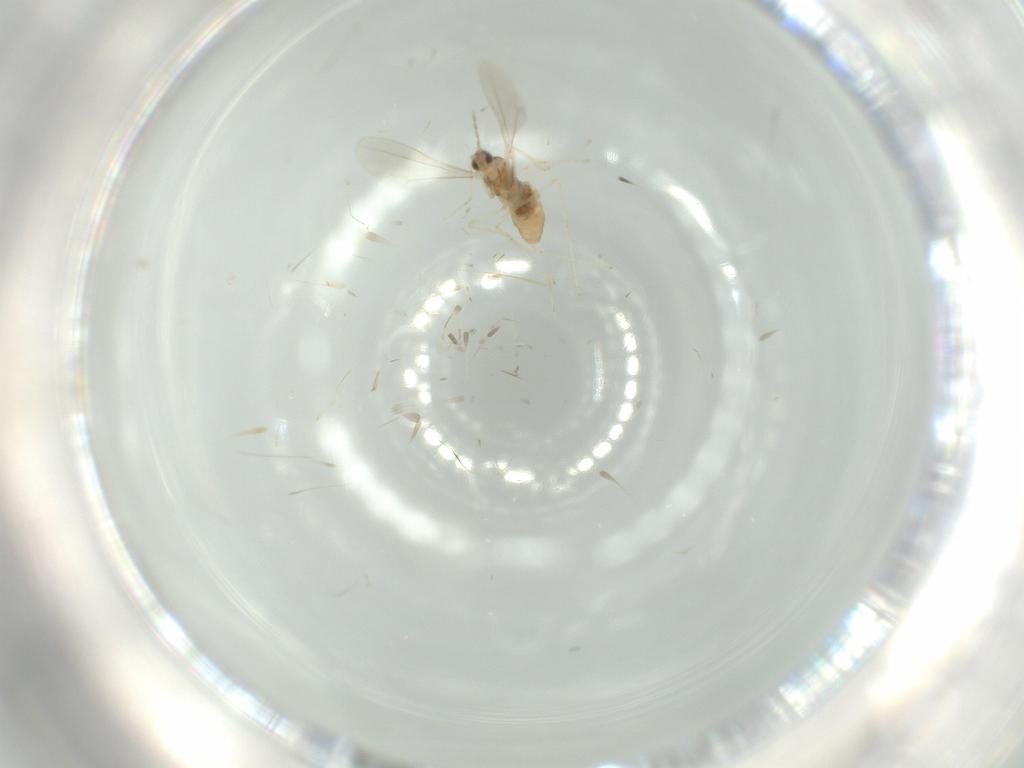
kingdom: Animalia
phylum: Arthropoda
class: Insecta
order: Diptera
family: Cecidomyiidae
